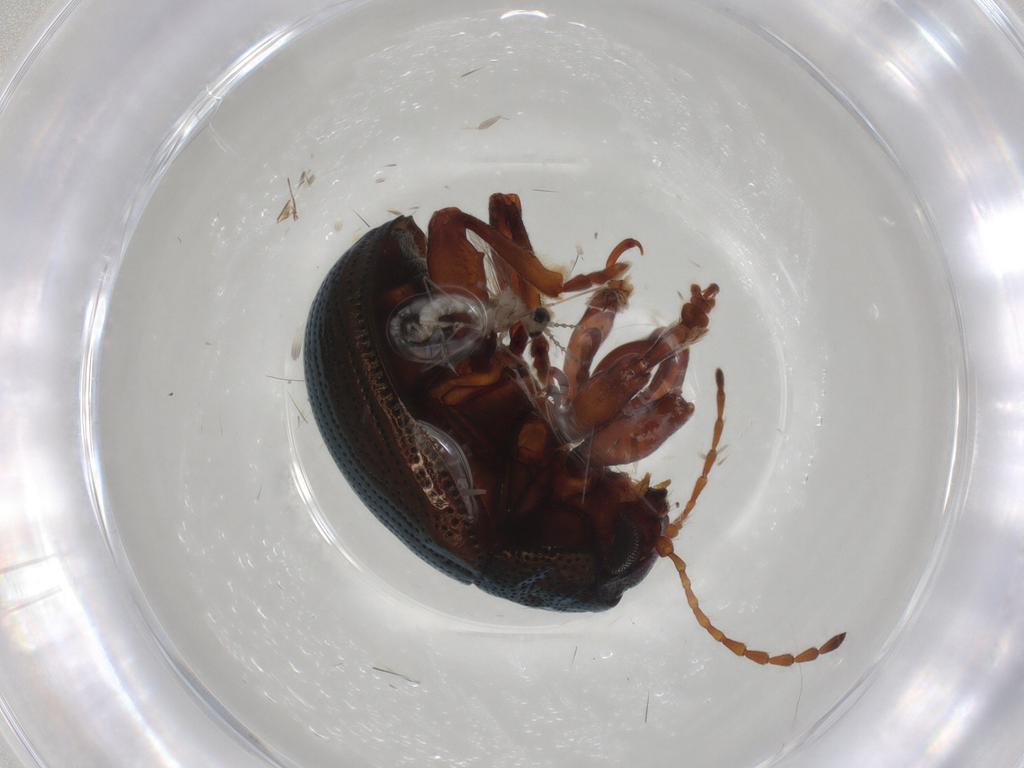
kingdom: Animalia
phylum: Arthropoda
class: Insecta
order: Coleoptera
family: Chrysomelidae
